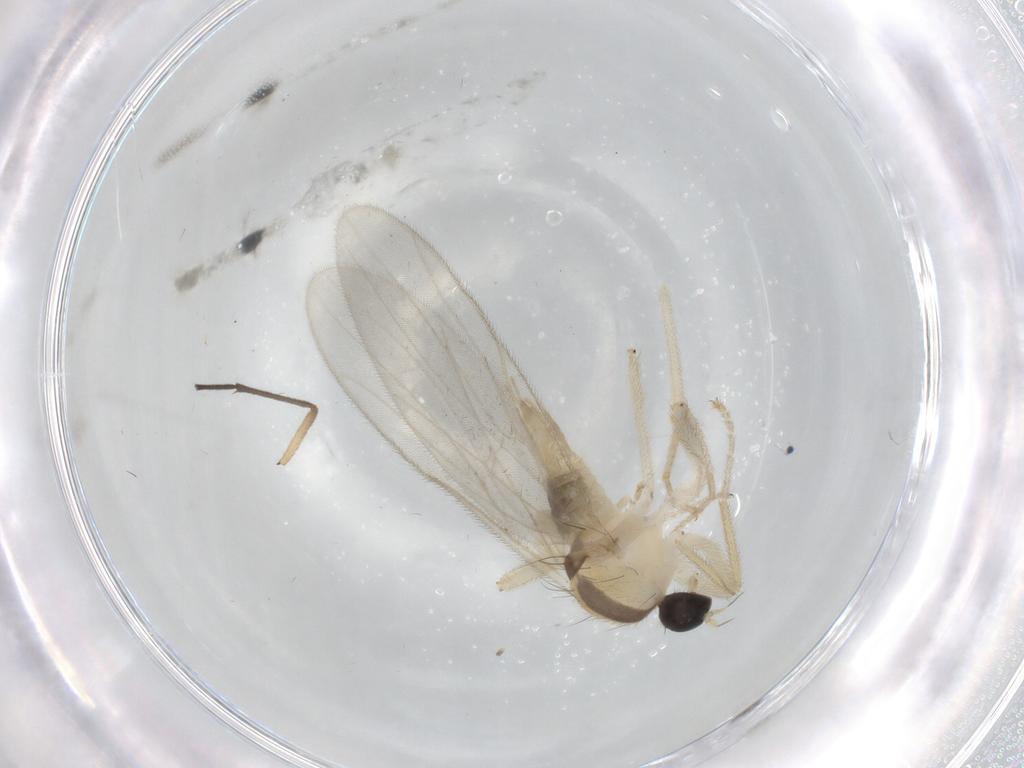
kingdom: Animalia
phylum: Arthropoda
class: Insecta
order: Diptera
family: Hybotidae
